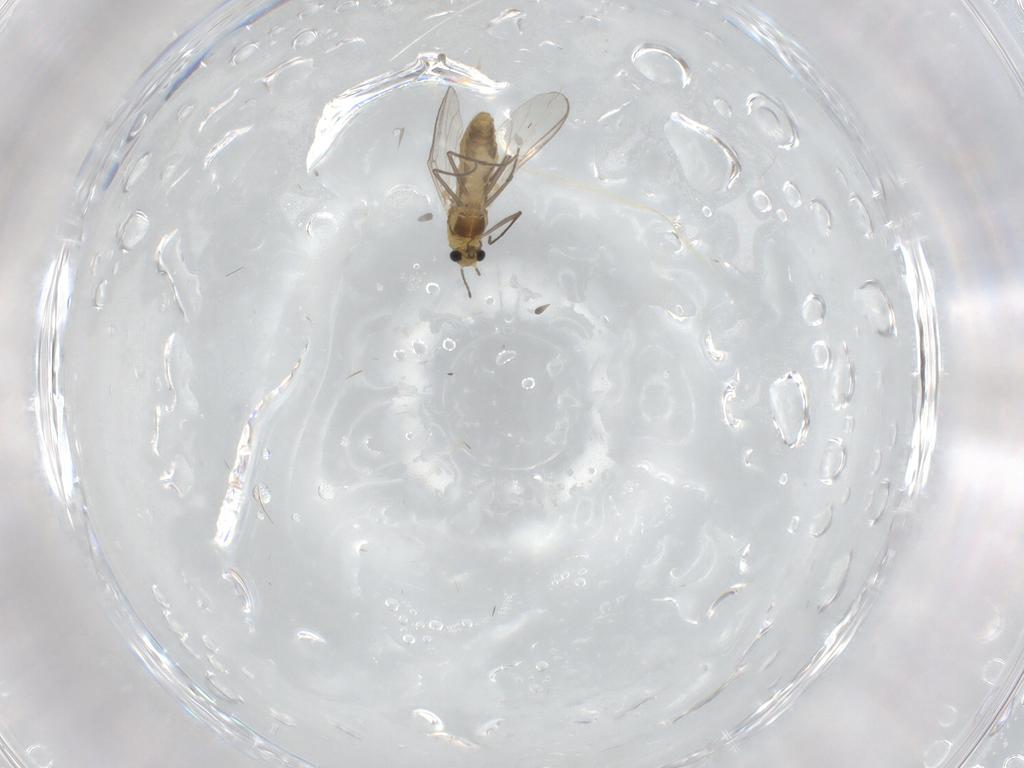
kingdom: Animalia
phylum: Arthropoda
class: Insecta
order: Diptera
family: Chironomidae
